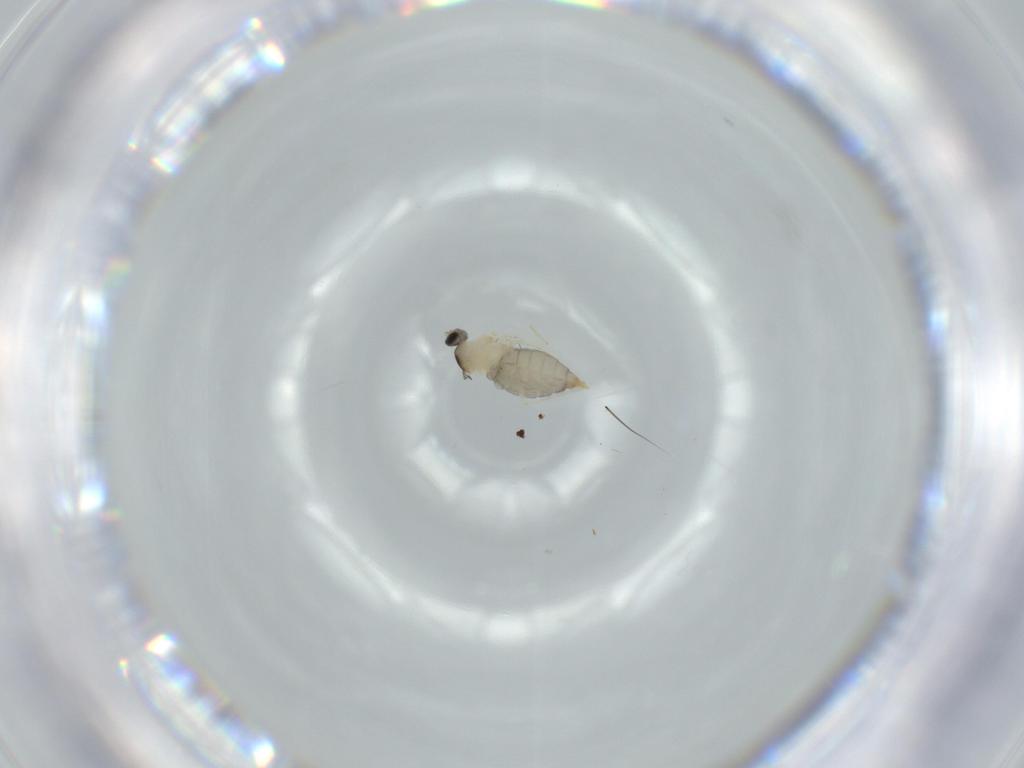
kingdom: Animalia
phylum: Arthropoda
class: Insecta
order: Diptera
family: Chironomidae
